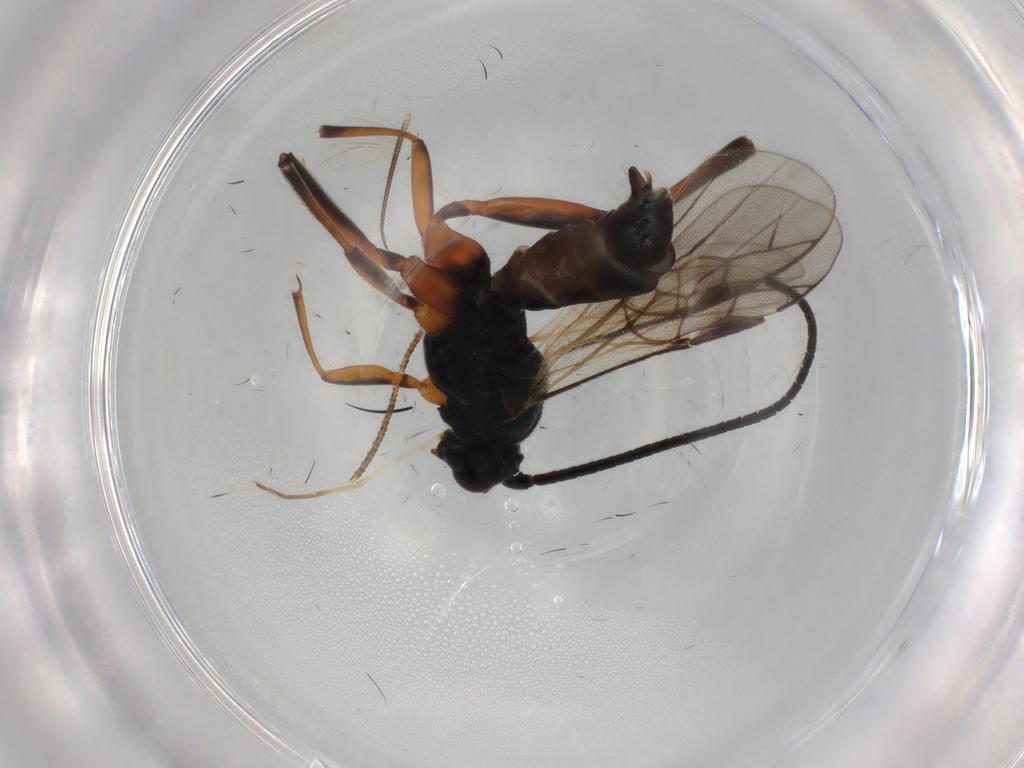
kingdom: Animalia
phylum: Arthropoda
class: Insecta
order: Hymenoptera
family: Braconidae
